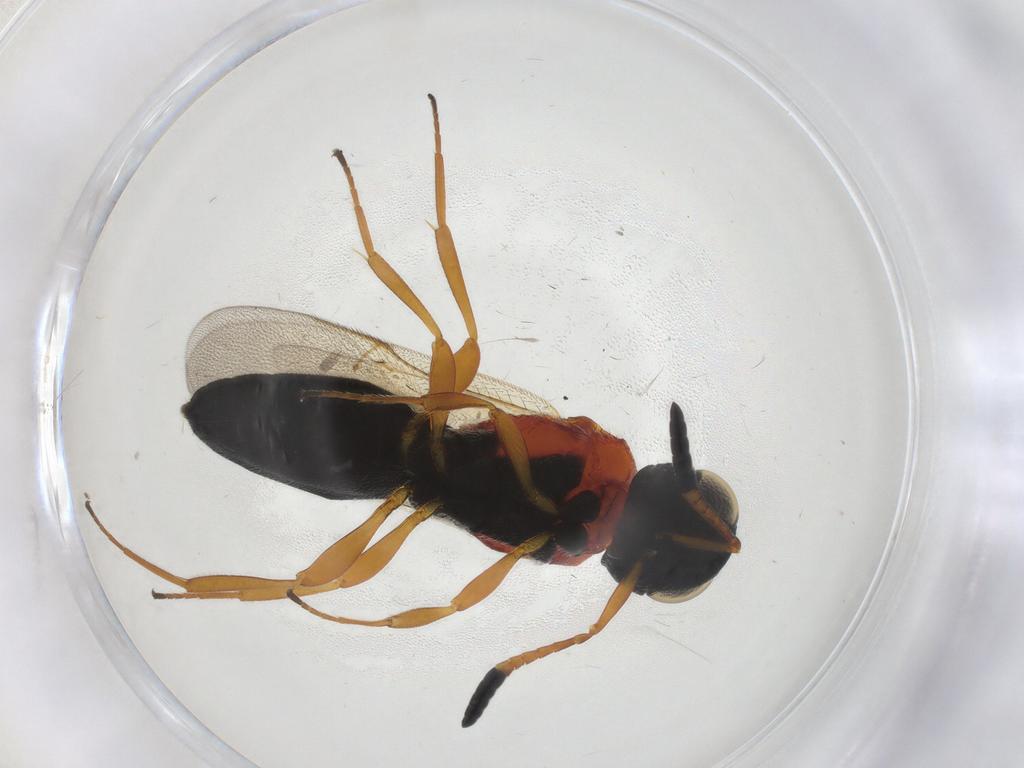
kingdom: Animalia
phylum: Arthropoda
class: Insecta
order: Hymenoptera
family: Scelionidae
